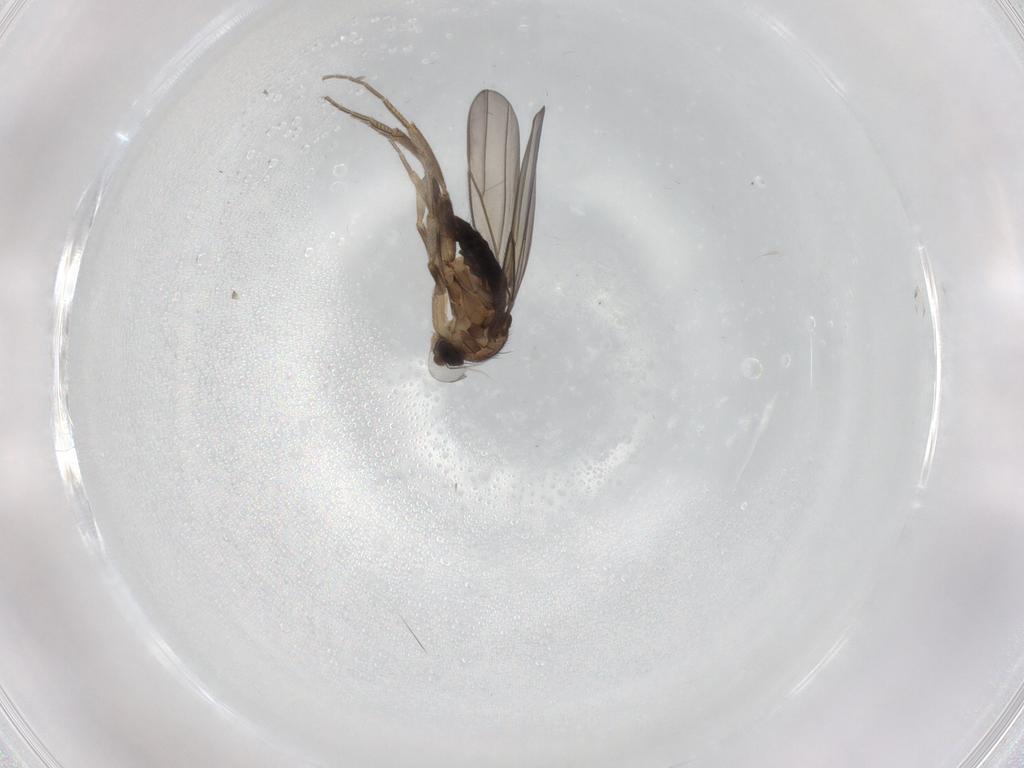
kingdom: Animalia
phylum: Arthropoda
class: Insecta
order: Diptera
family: Phoridae
